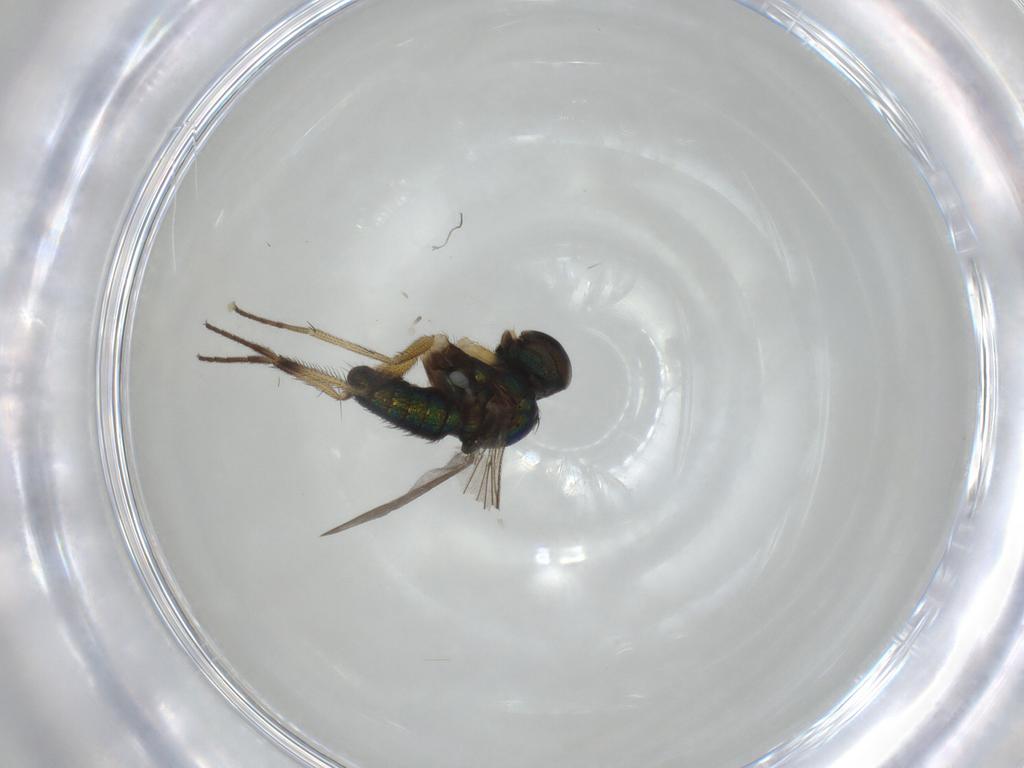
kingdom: Animalia
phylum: Arthropoda
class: Insecta
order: Diptera
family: Dolichopodidae
